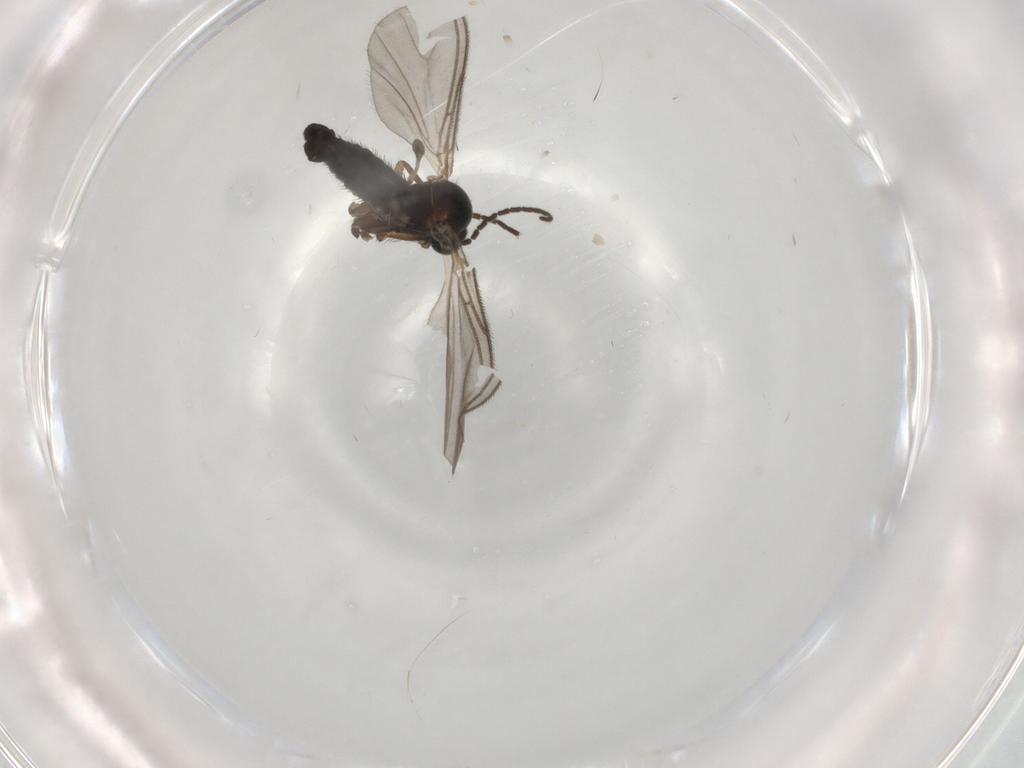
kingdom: Animalia
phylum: Arthropoda
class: Insecta
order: Diptera
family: Sciaridae
